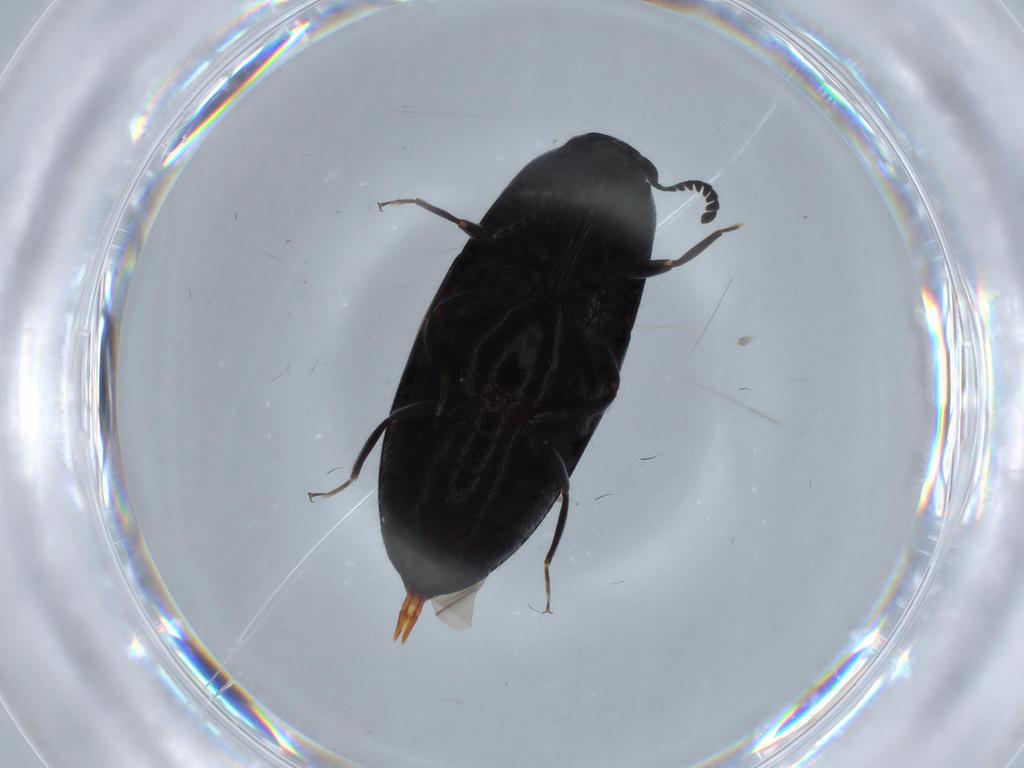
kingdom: Animalia
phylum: Arthropoda
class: Insecta
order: Coleoptera
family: Elateridae
